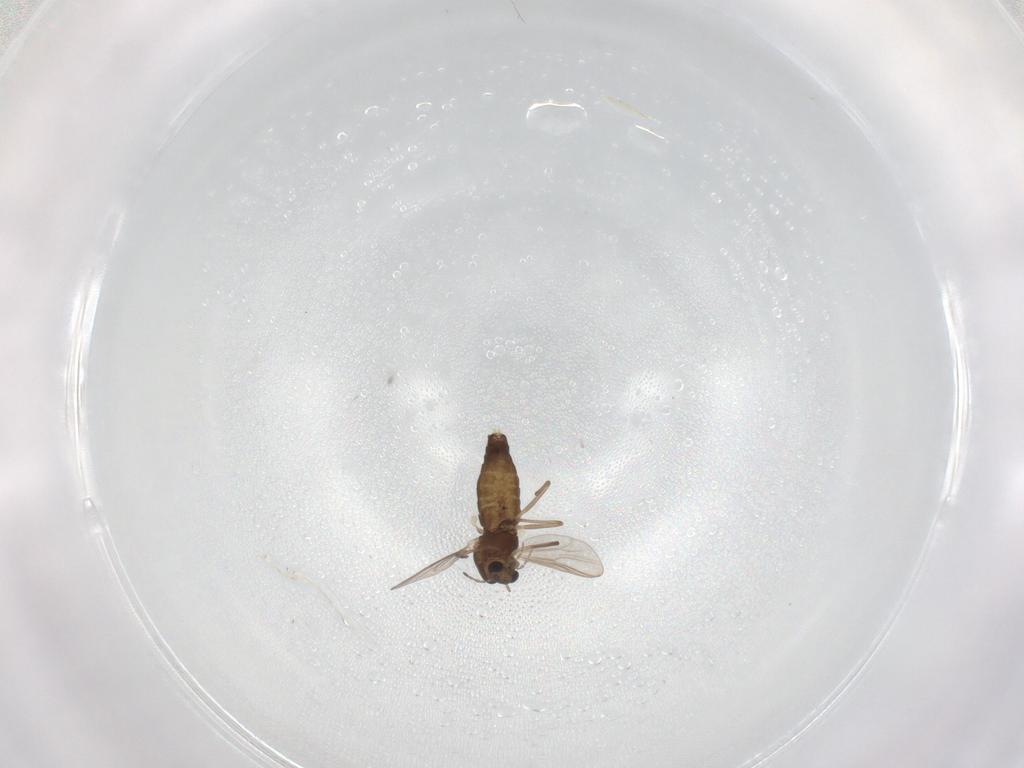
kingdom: Animalia
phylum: Arthropoda
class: Insecta
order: Diptera
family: Chironomidae
